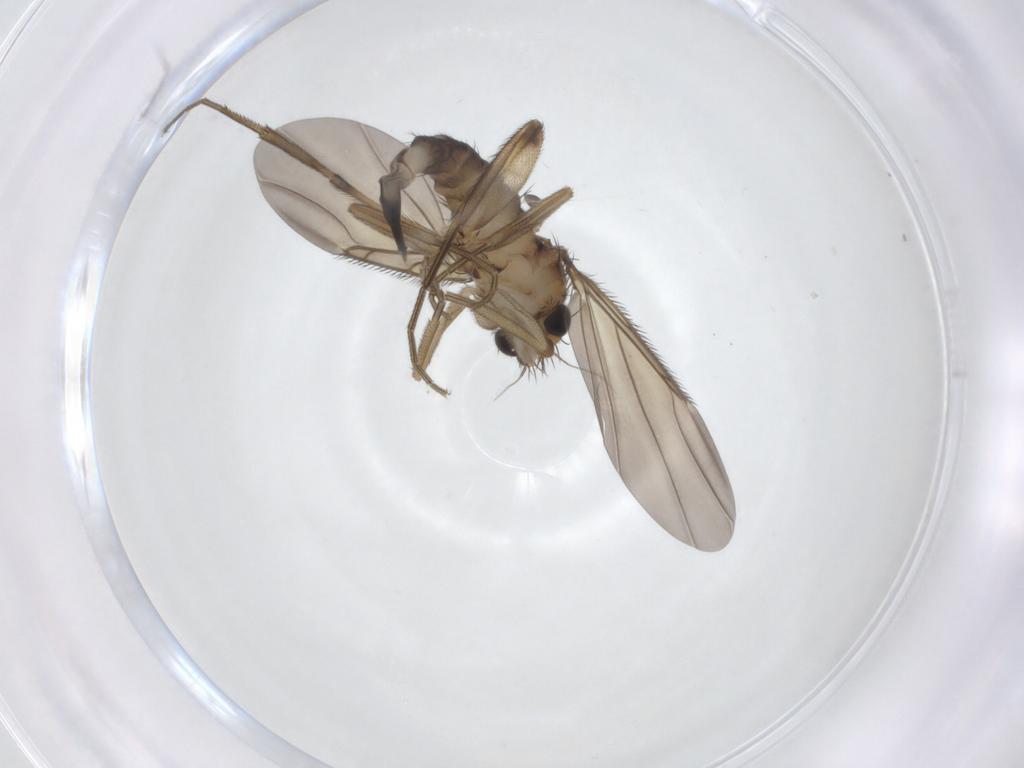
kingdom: Animalia
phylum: Arthropoda
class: Insecta
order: Diptera
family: Phoridae
